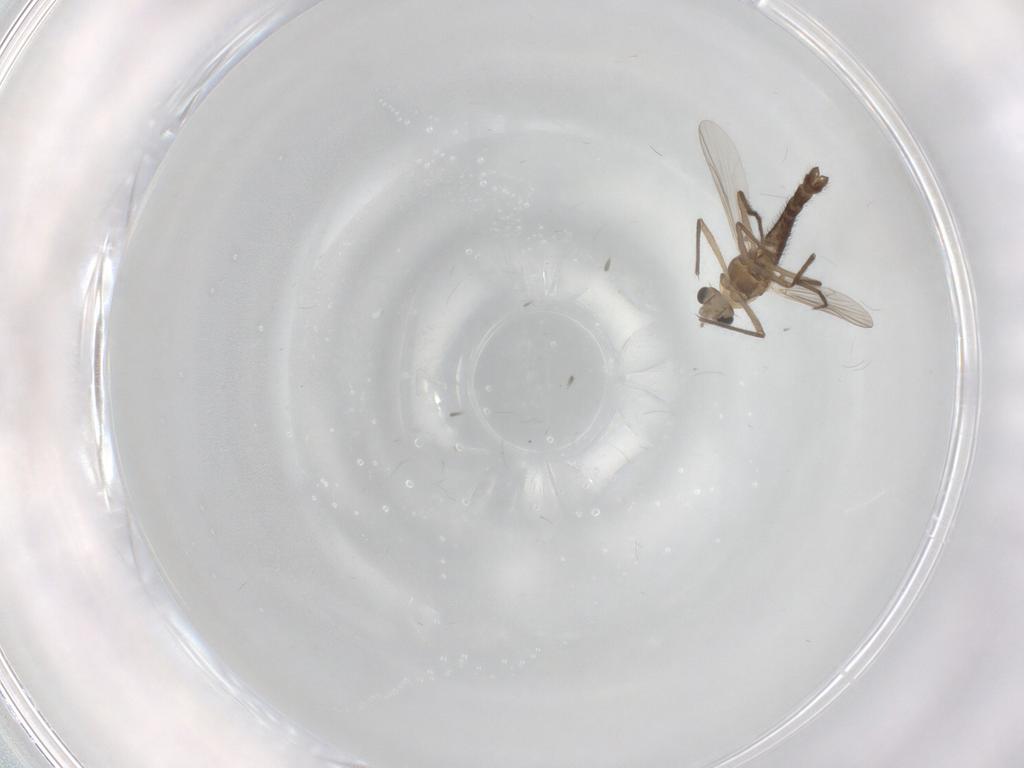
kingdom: Animalia
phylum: Arthropoda
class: Insecta
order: Diptera
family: Chironomidae
